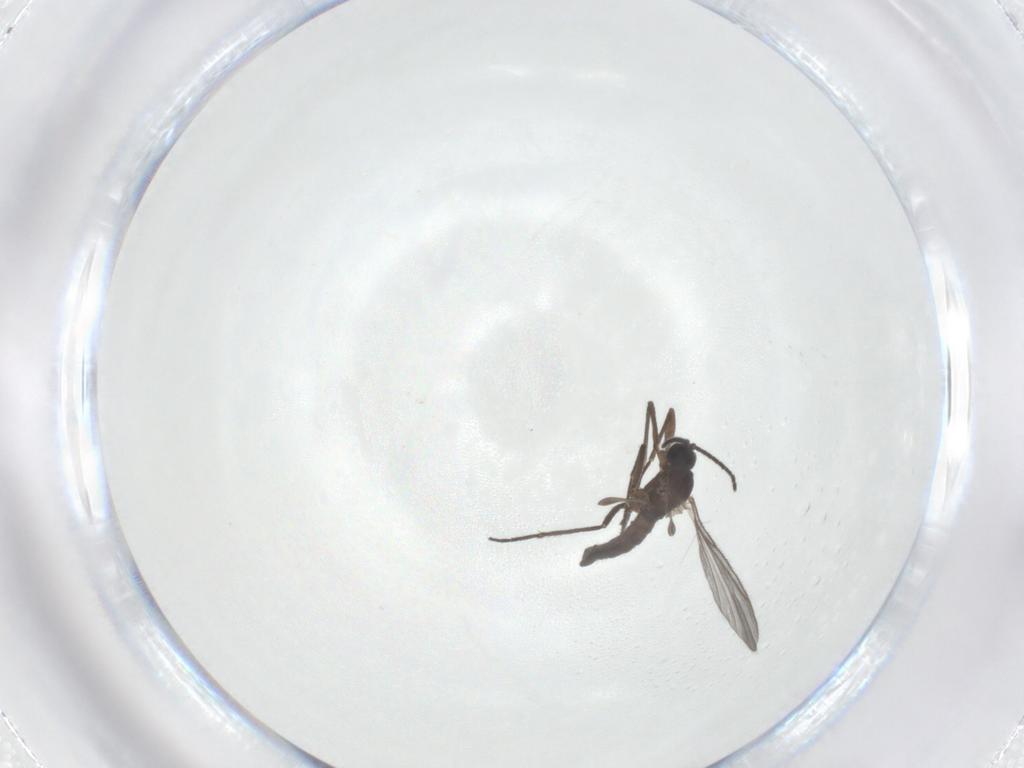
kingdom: Animalia
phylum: Arthropoda
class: Insecta
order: Diptera
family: Sciaridae
